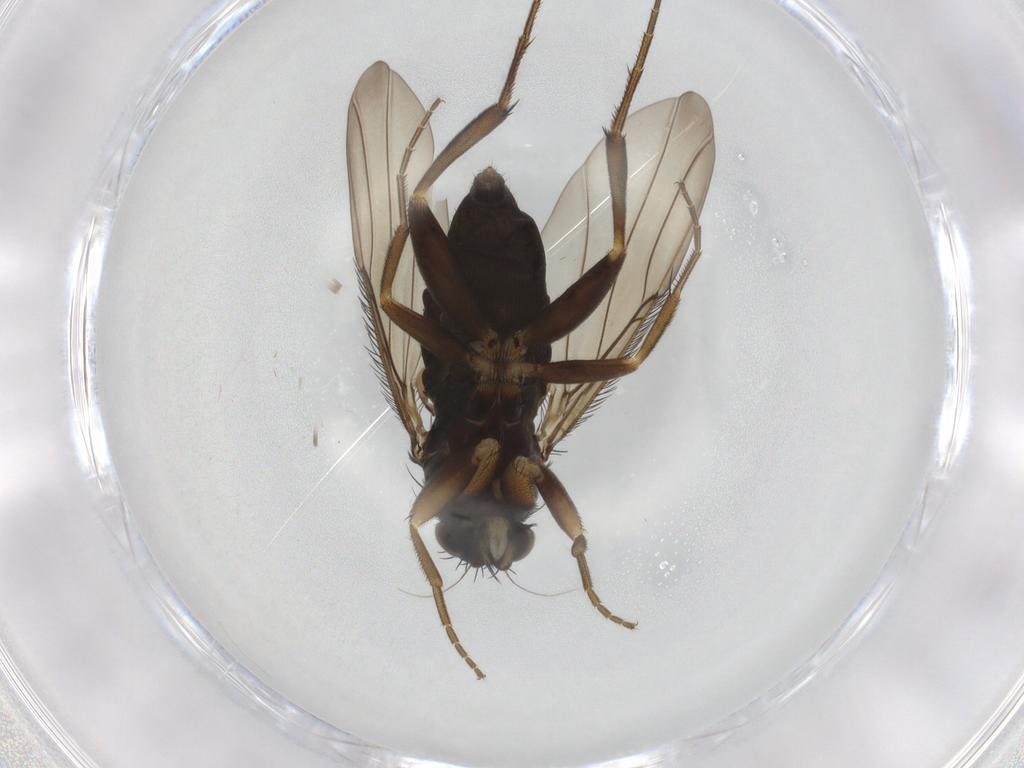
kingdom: Animalia
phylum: Arthropoda
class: Insecta
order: Diptera
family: Phoridae
